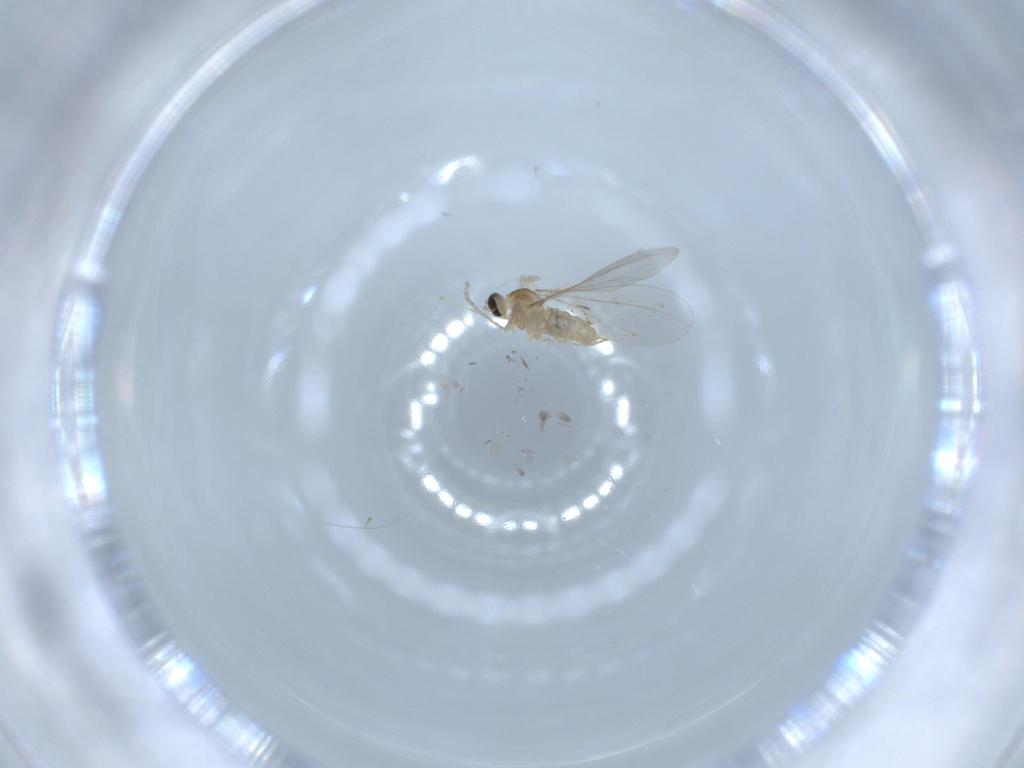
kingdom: Animalia
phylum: Arthropoda
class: Insecta
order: Diptera
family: Cecidomyiidae
